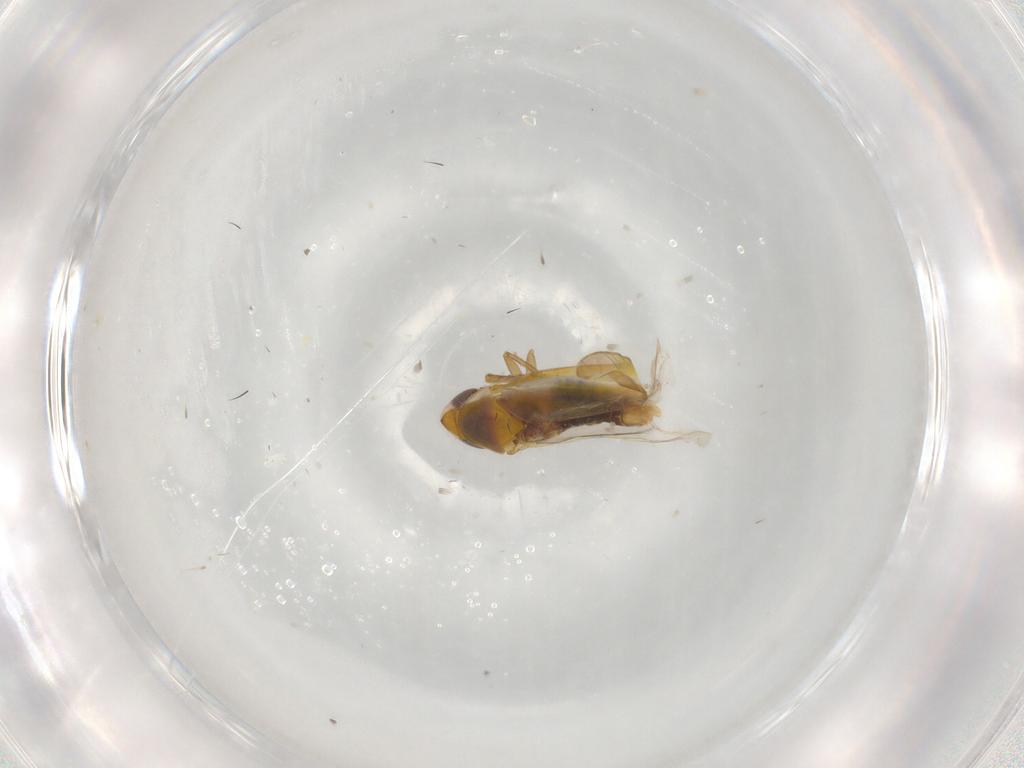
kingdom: Animalia
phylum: Arthropoda
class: Insecta
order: Hemiptera
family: Cicadellidae
